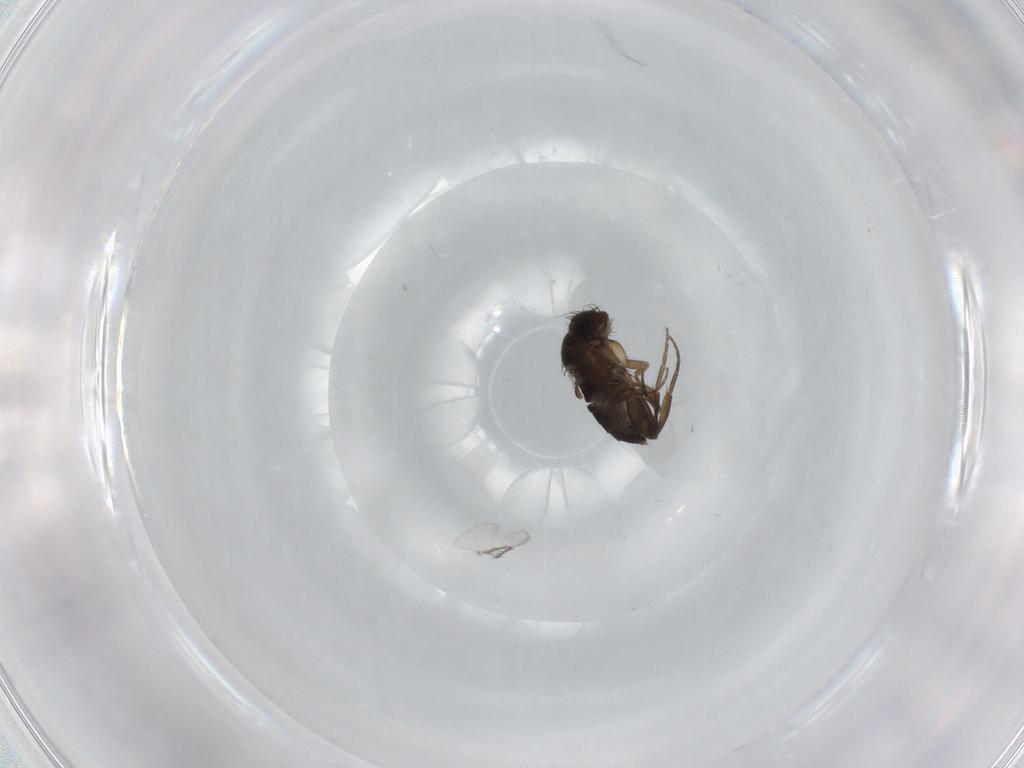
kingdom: Animalia
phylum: Arthropoda
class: Insecta
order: Diptera
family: Phoridae
